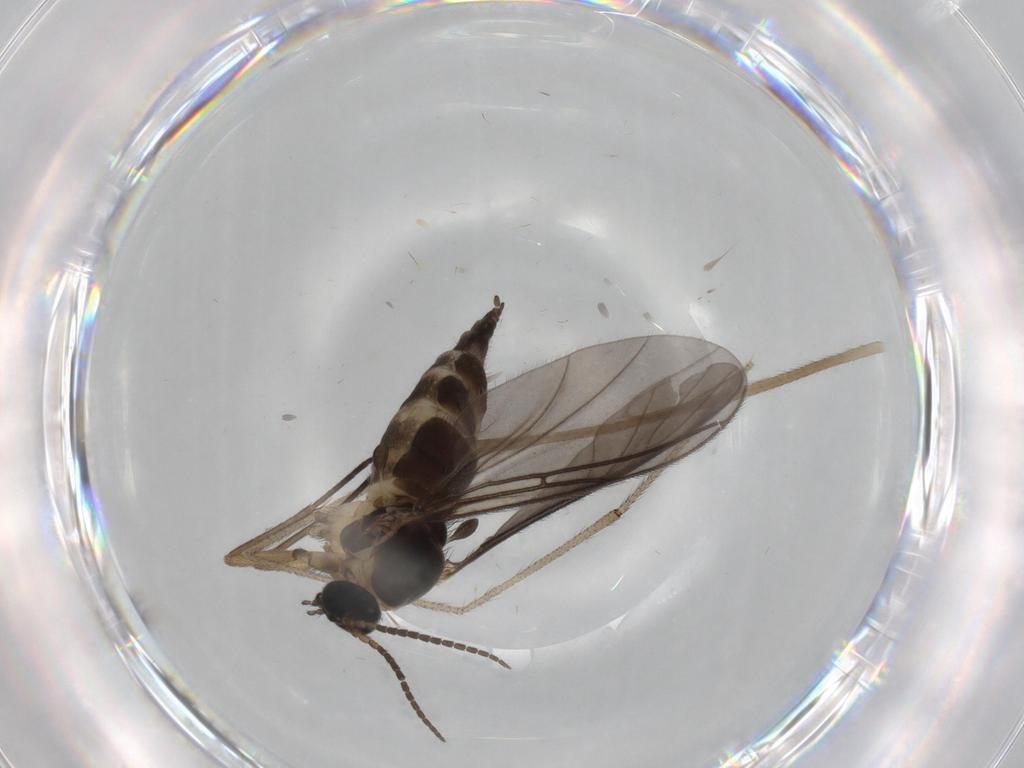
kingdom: Animalia
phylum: Arthropoda
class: Insecta
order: Diptera
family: Sciaridae
